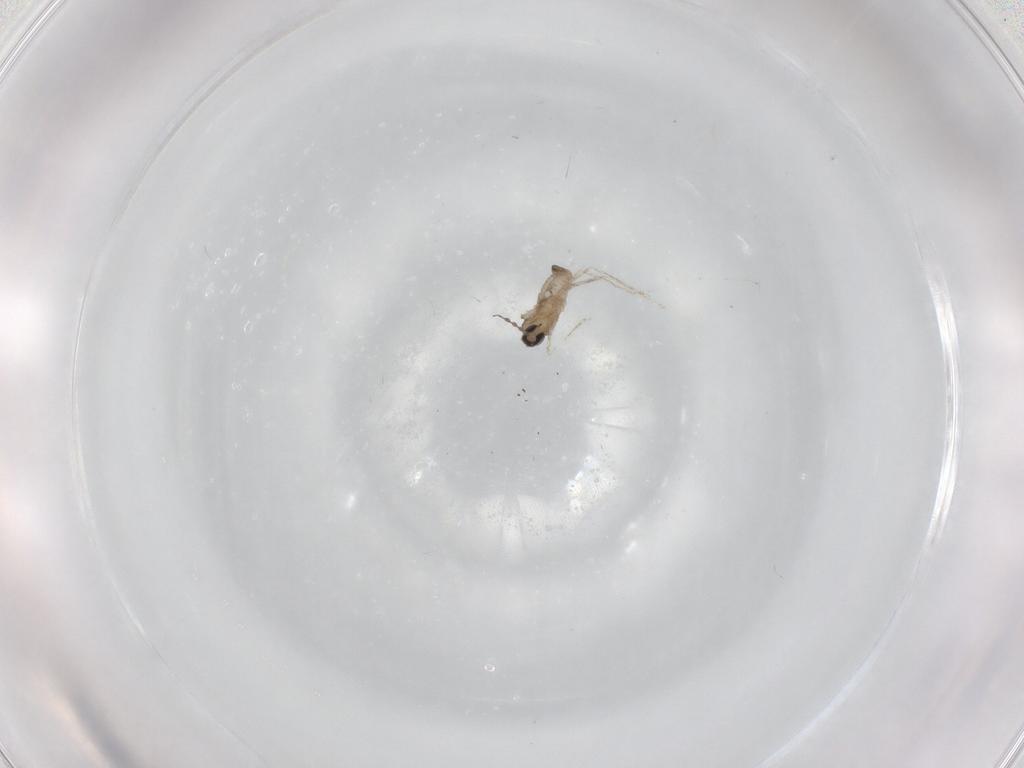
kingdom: Animalia
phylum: Arthropoda
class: Insecta
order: Diptera
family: Cecidomyiidae
